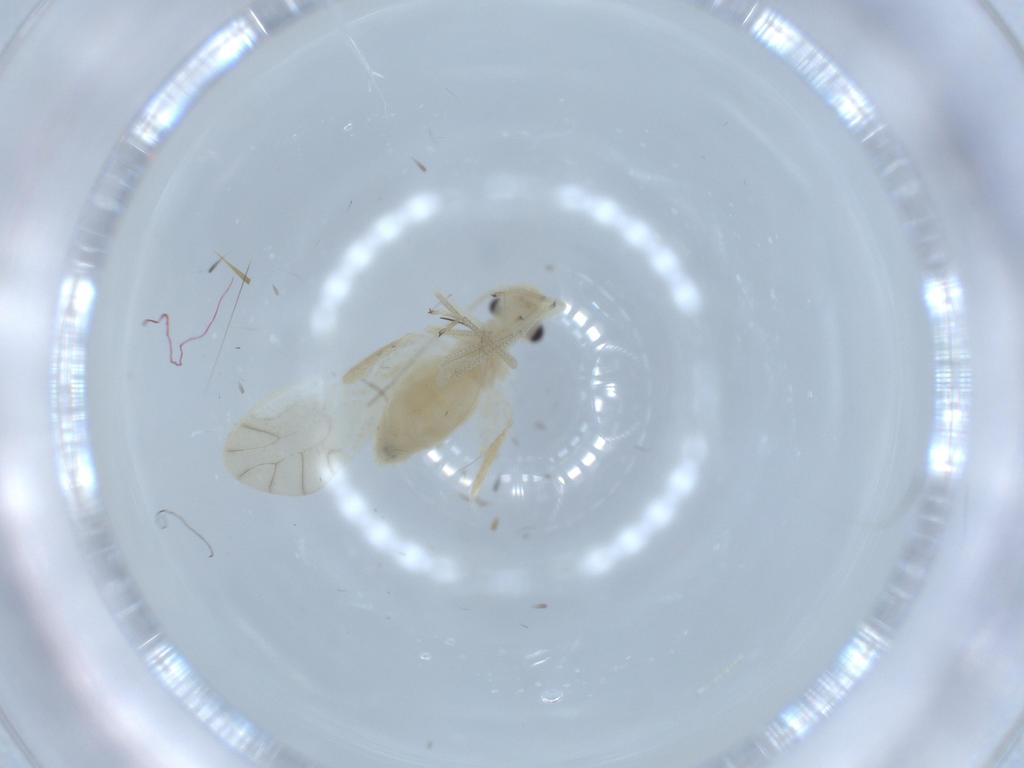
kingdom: Animalia
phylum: Arthropoda
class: Insecta
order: Psocodea
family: Caeciliusidae
